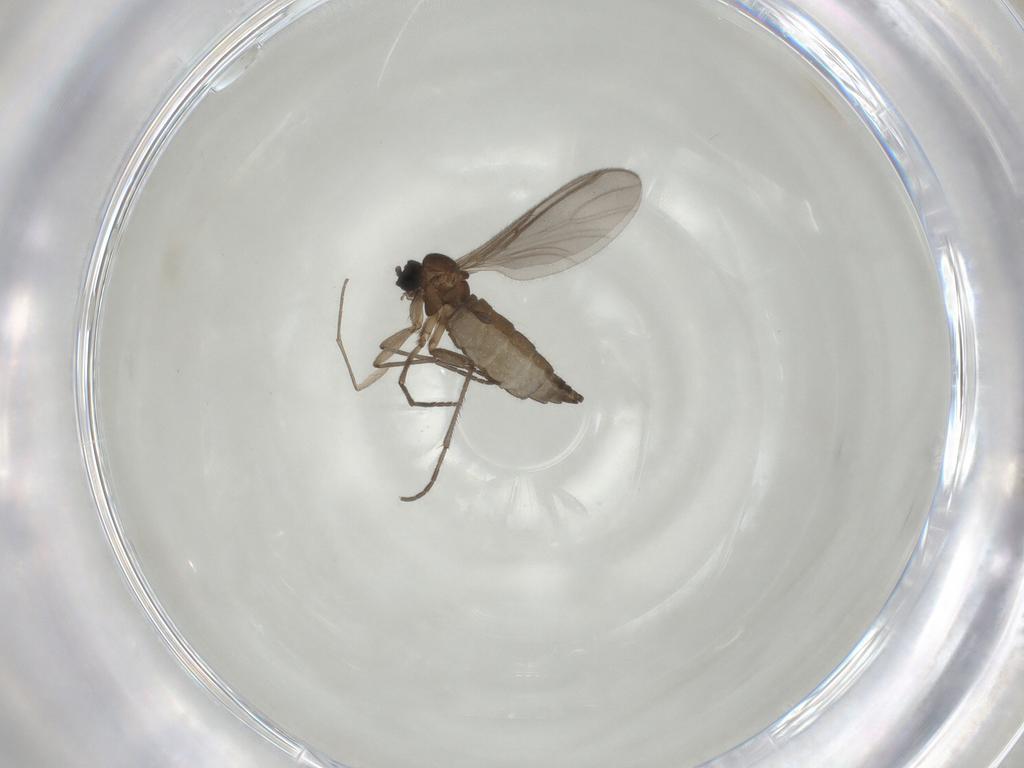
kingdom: Animalia
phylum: Arthropoda
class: Insecta
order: Diptera
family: Sciaridae
